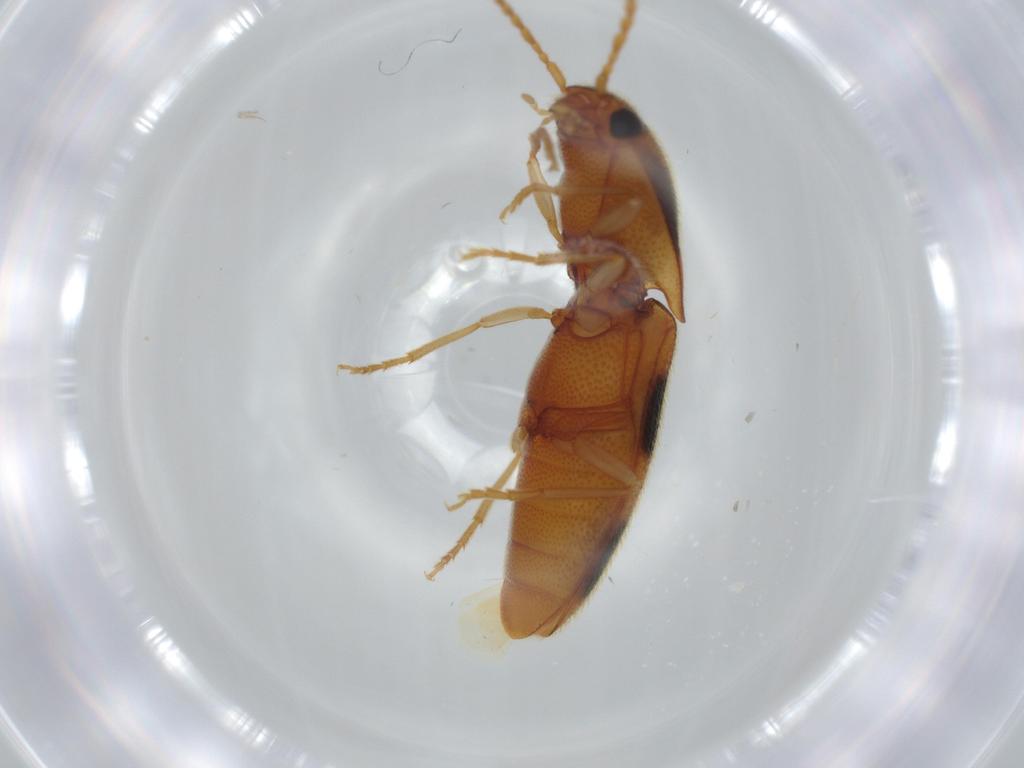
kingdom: Animalia
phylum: Arthropoda
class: Insecta
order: Coleoptera
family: Elateridae
